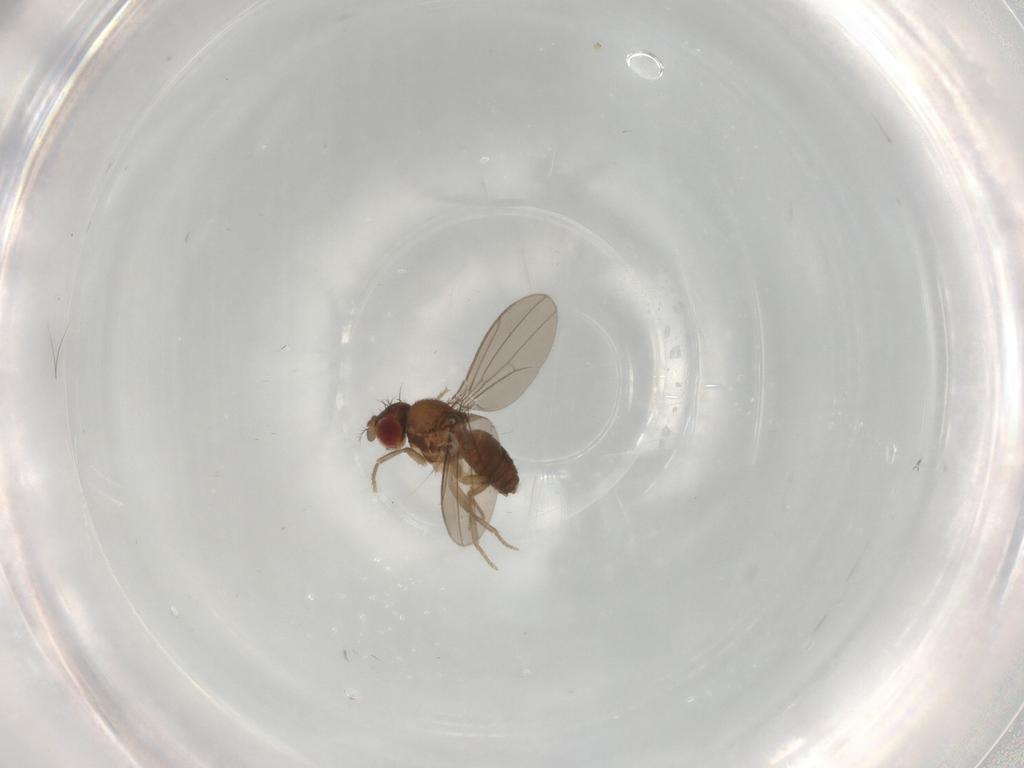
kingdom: Animalia
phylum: Arthropoda
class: Insecta
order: Diptera
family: Drosophilidae
